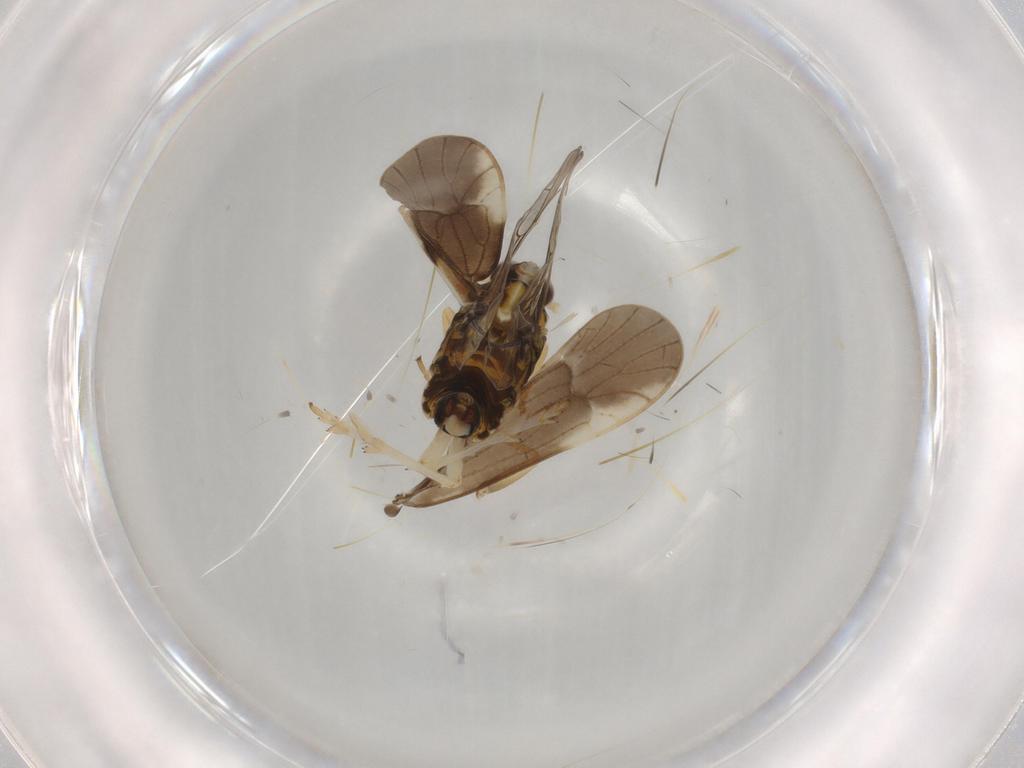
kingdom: Animalia
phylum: Arthropoda
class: Insecta
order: Hemiptera
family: Delphacidae
